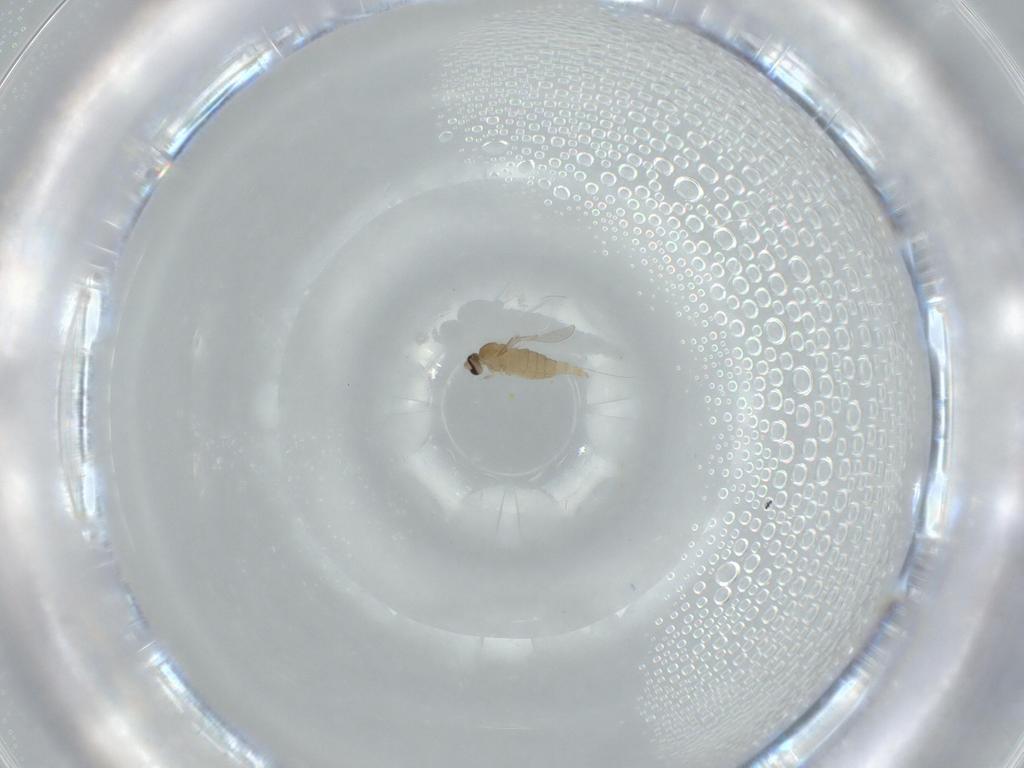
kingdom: Animalia
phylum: Arthropoda
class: Insecta
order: Diptera
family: Cecidomyiidae
